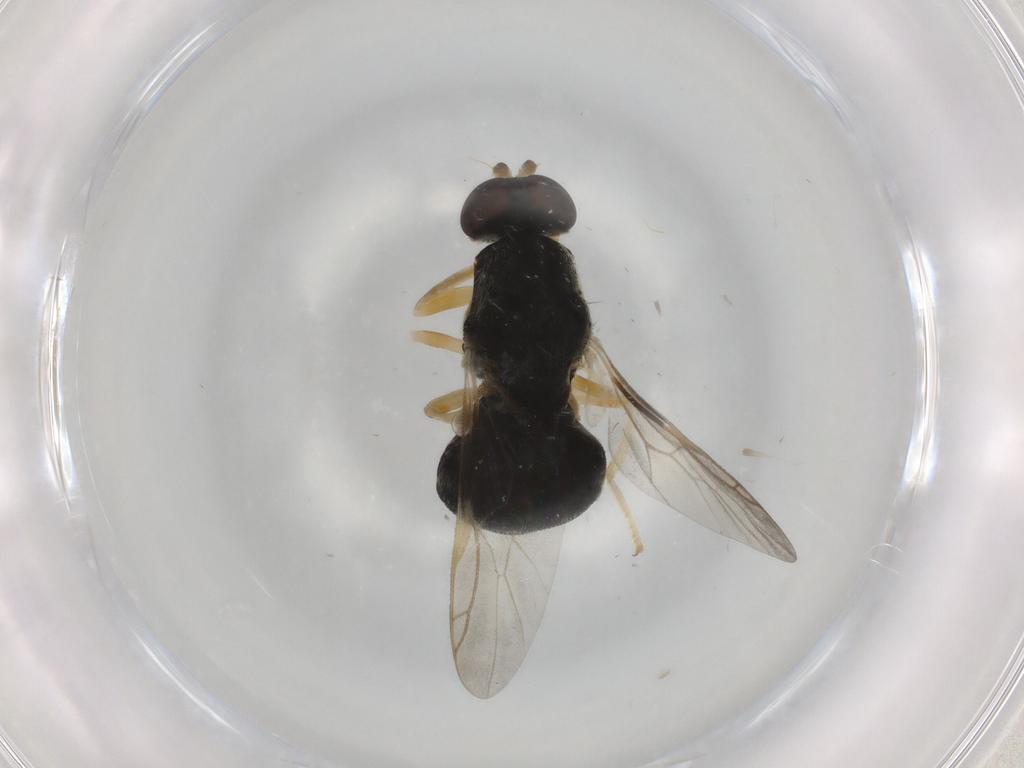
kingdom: Animalia
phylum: Arthropoda
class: Insecta
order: Diptera
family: Stratiomyidae
